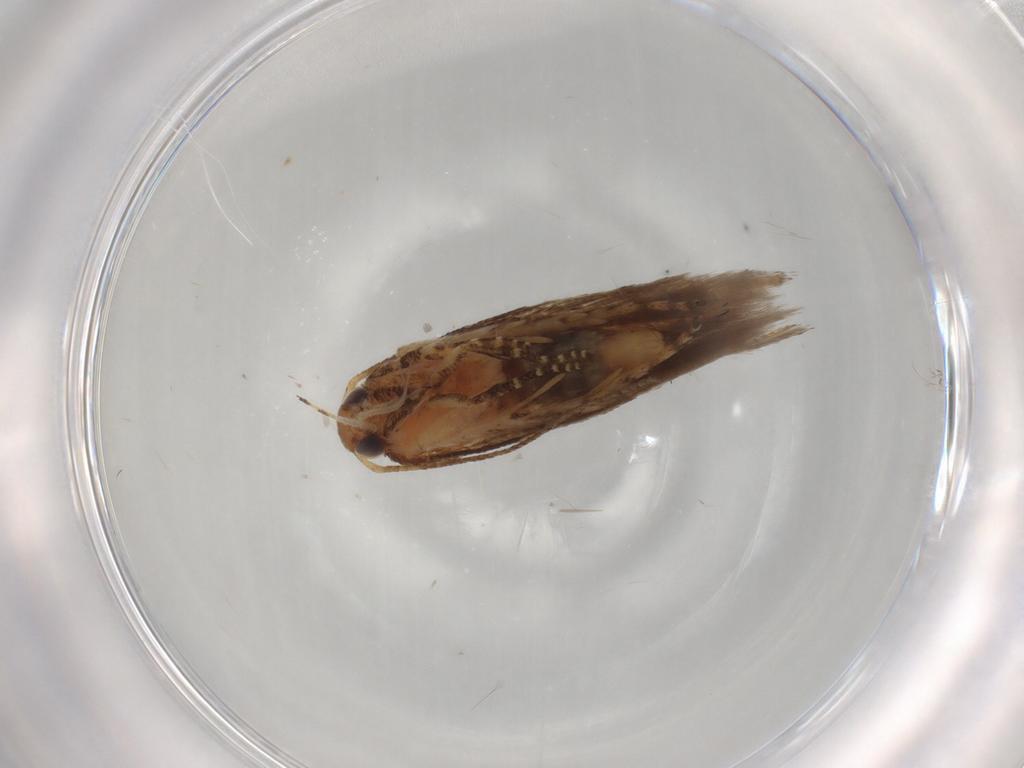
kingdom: Animalia
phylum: Arthropoda
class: Insecta
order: Lepidoptera
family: Gelechiidae
